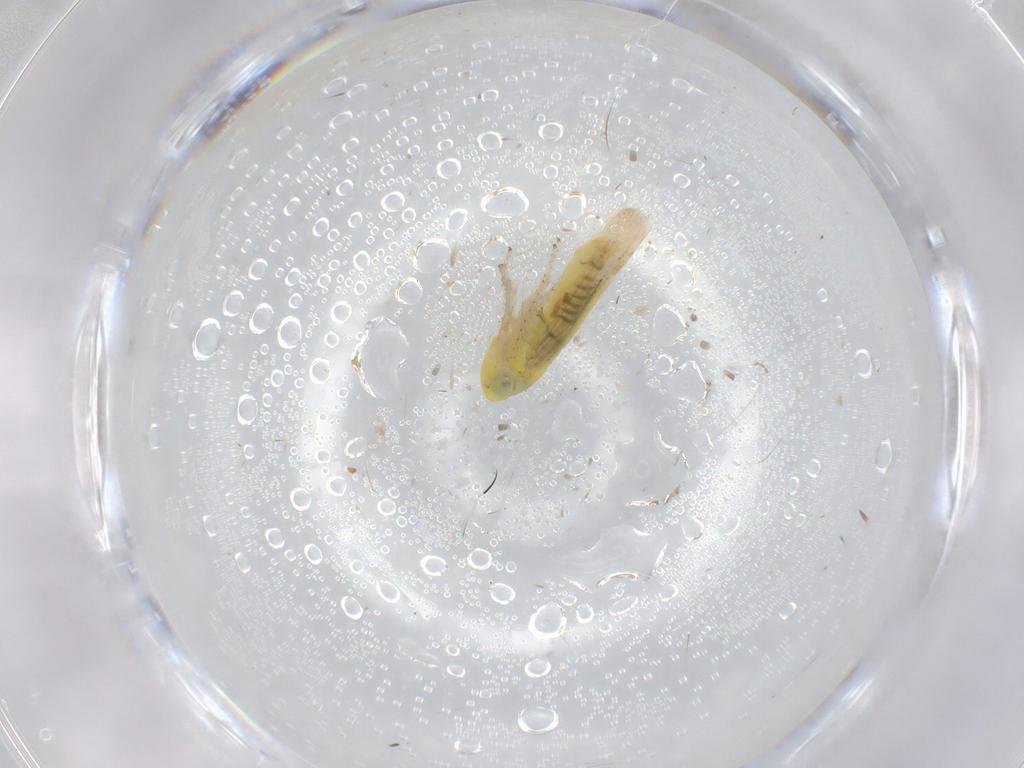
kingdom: Animalia
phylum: Arthropoda
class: Insecta
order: Hemiptera
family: Cicadellidae
